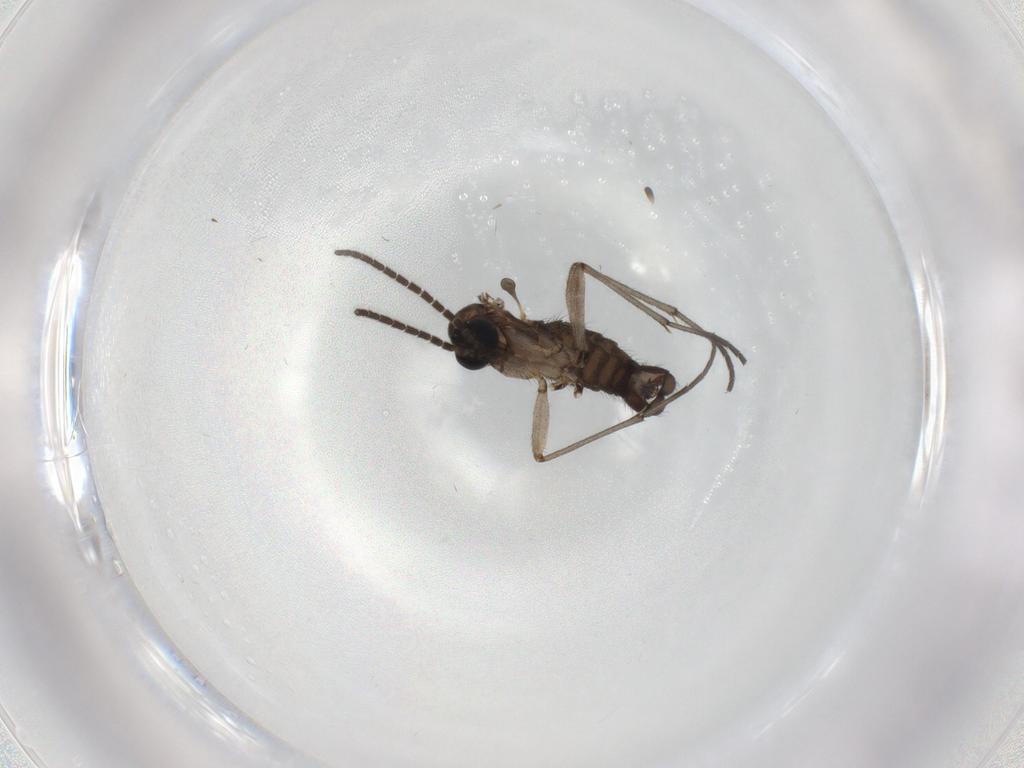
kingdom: Animalia
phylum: Arthropoda
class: Insecta
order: Diptera
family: Sciaridae
